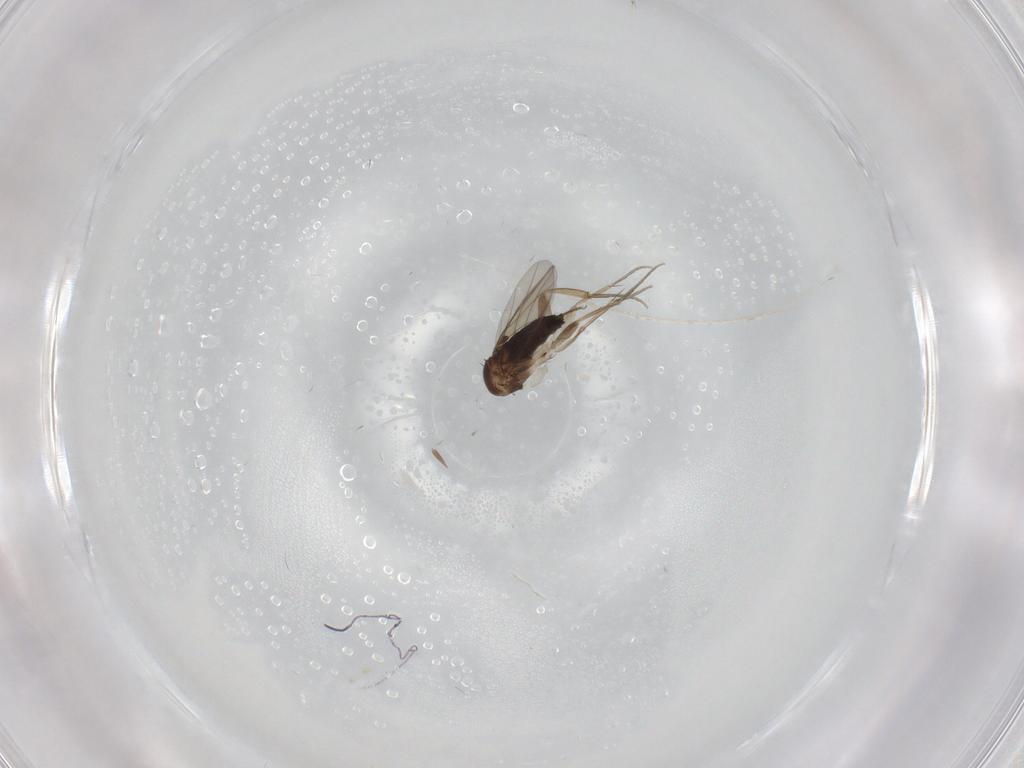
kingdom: Animalia
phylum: Arthropoda
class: Insecta
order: Diptera
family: Phoridae
